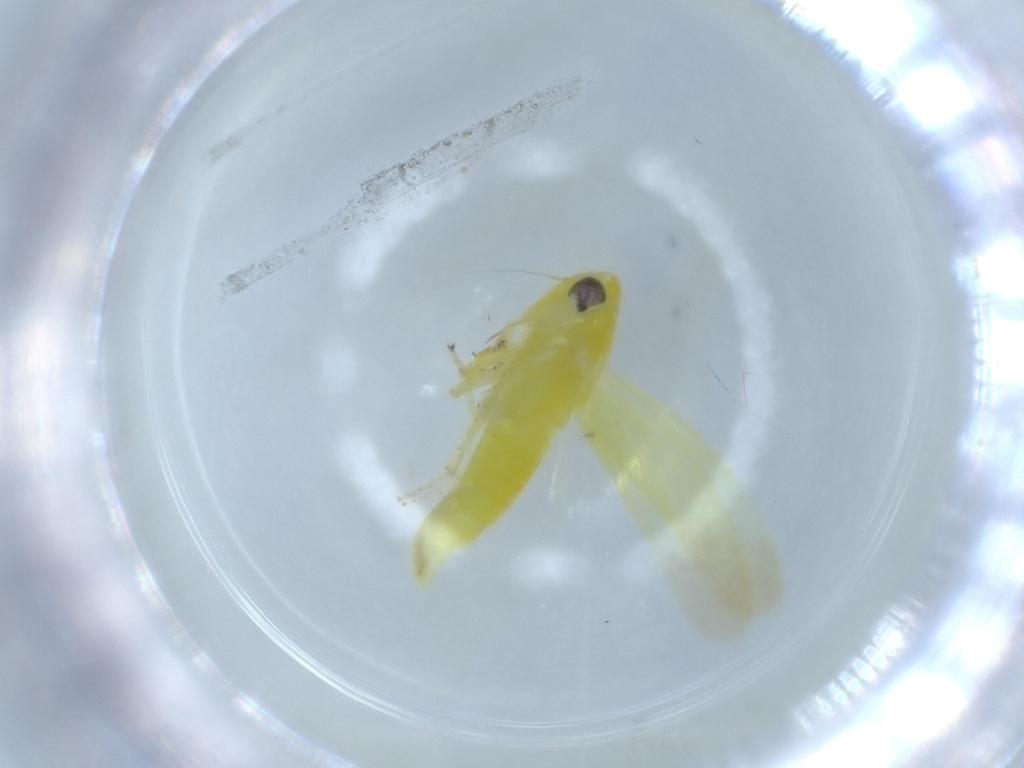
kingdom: Animalia
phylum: Arthropoda
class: Insecta
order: Hemiptera
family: Cicadellidae
